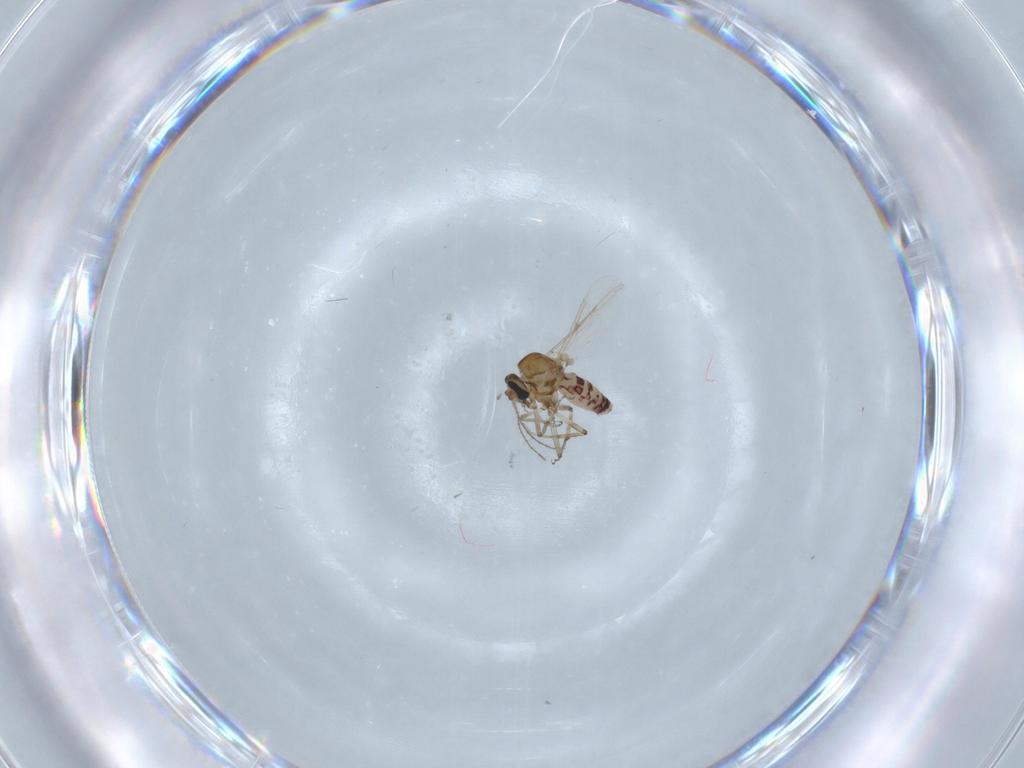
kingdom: Animalia
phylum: Arthropoda
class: Insecta
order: Diptera
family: Ceratopogonidae
